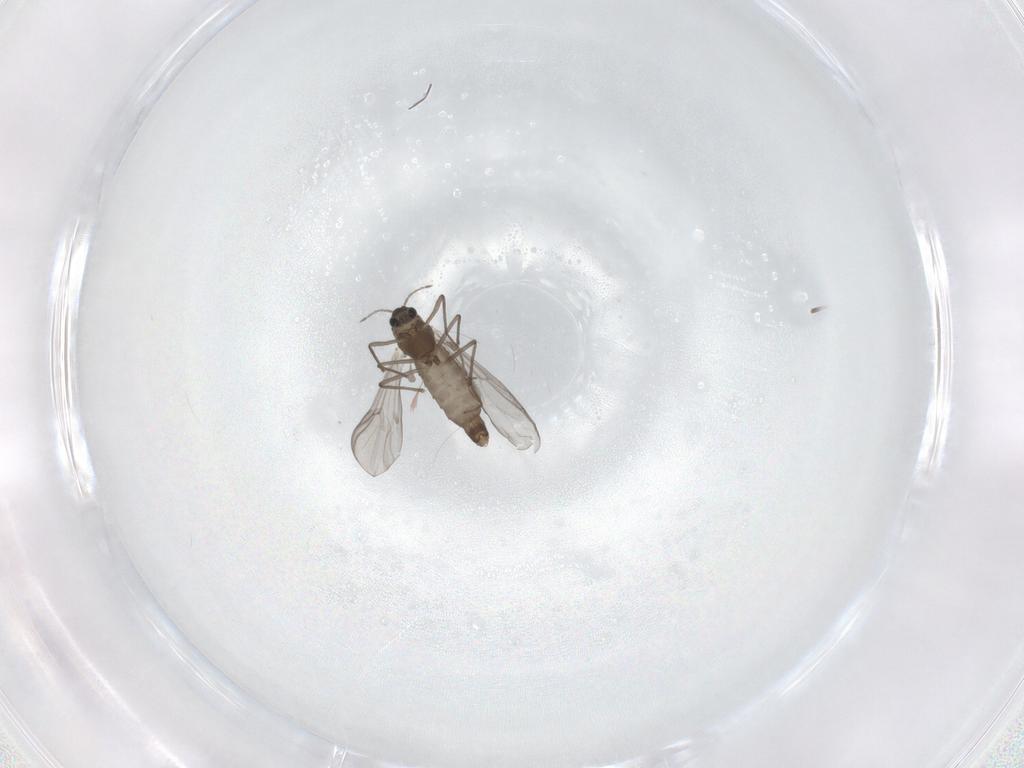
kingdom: Animalia
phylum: Arthropoda
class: Insecta
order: Diptera
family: Chironomidae
